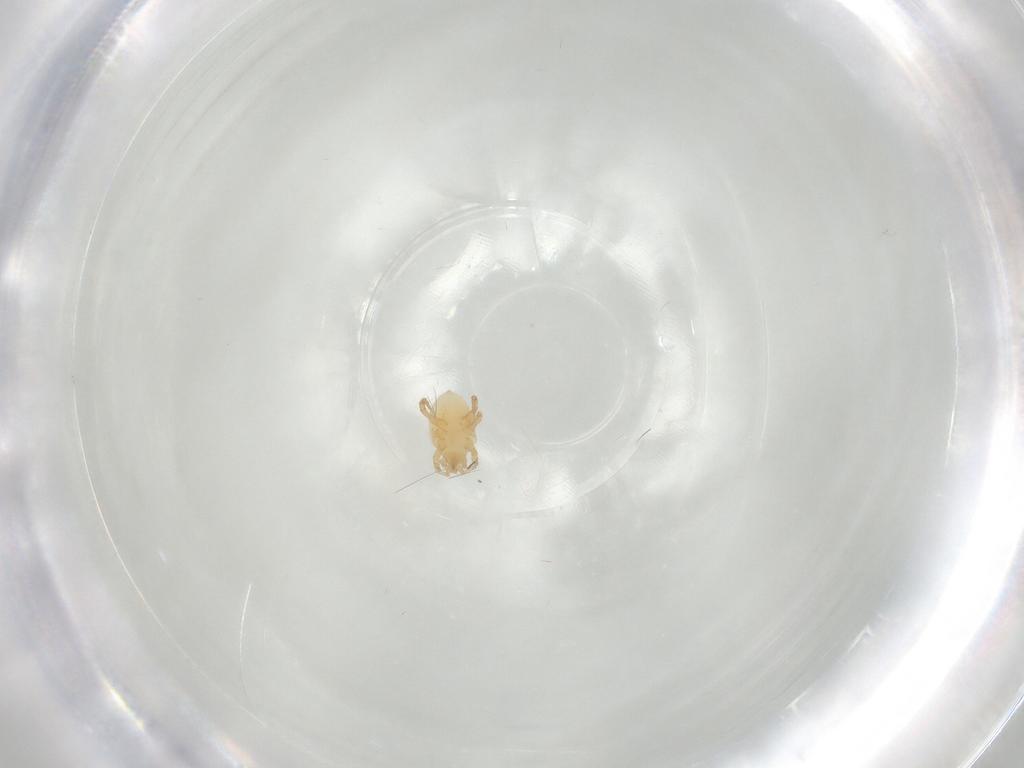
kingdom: Animalia
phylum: Arthropoda
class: Arachnida
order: Mesostigmata
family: Parasitidae
